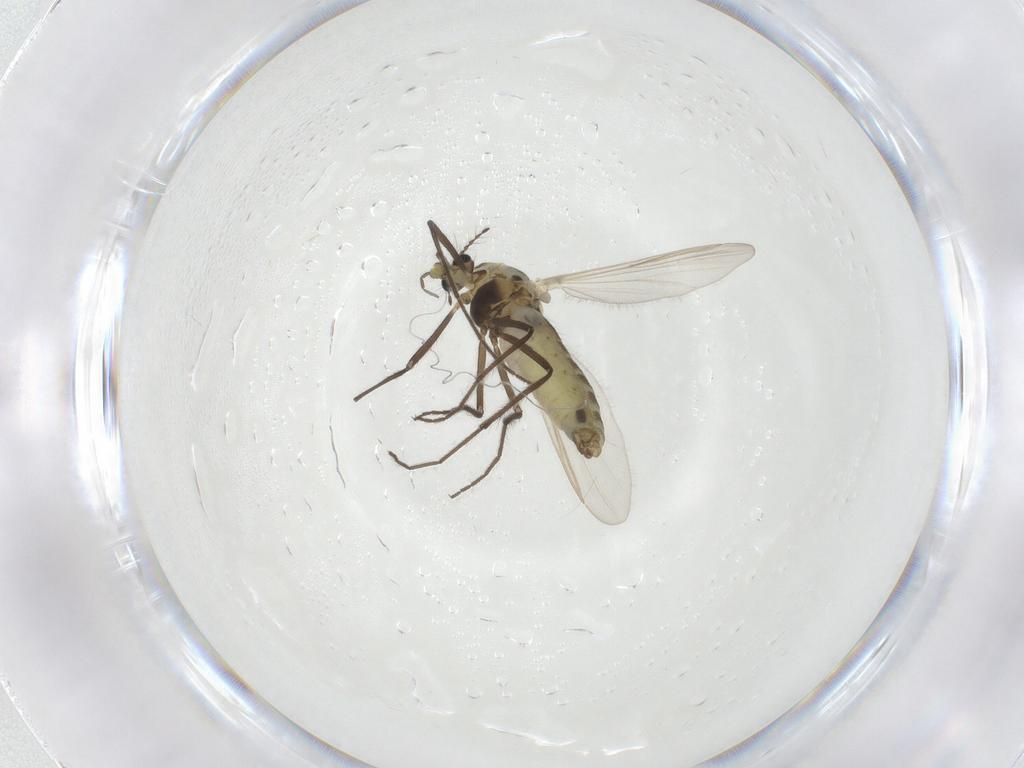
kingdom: Animalia
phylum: Arthropoda
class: Insecta
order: Diptera
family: Chironomidae
